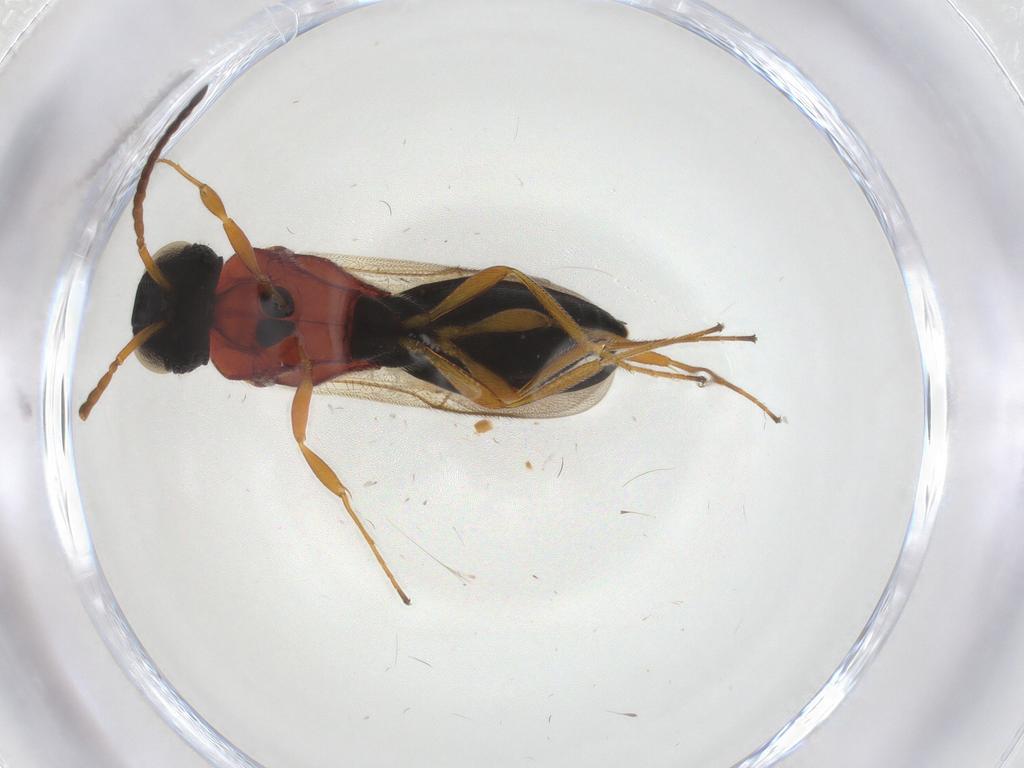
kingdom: Animalia
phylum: Arthropoda
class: Insecta
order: Hymenoptera
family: Scelionidae
